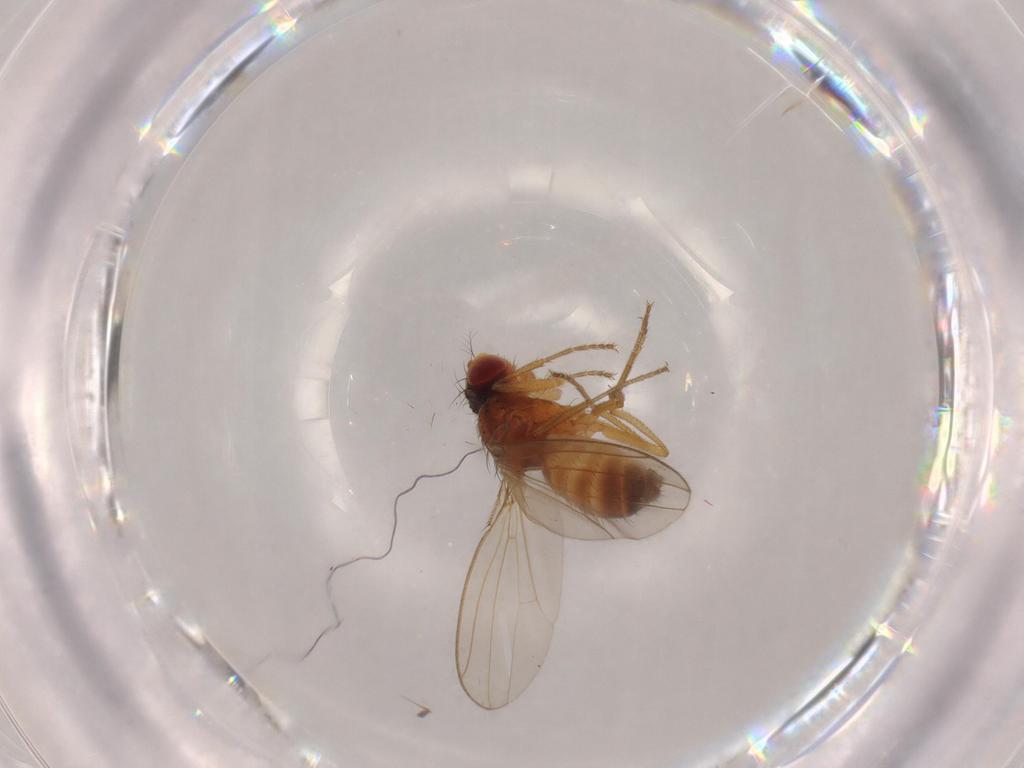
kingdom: Animalia
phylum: Arthropoda
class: Insecta
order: Diptera
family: Drosophilidae
